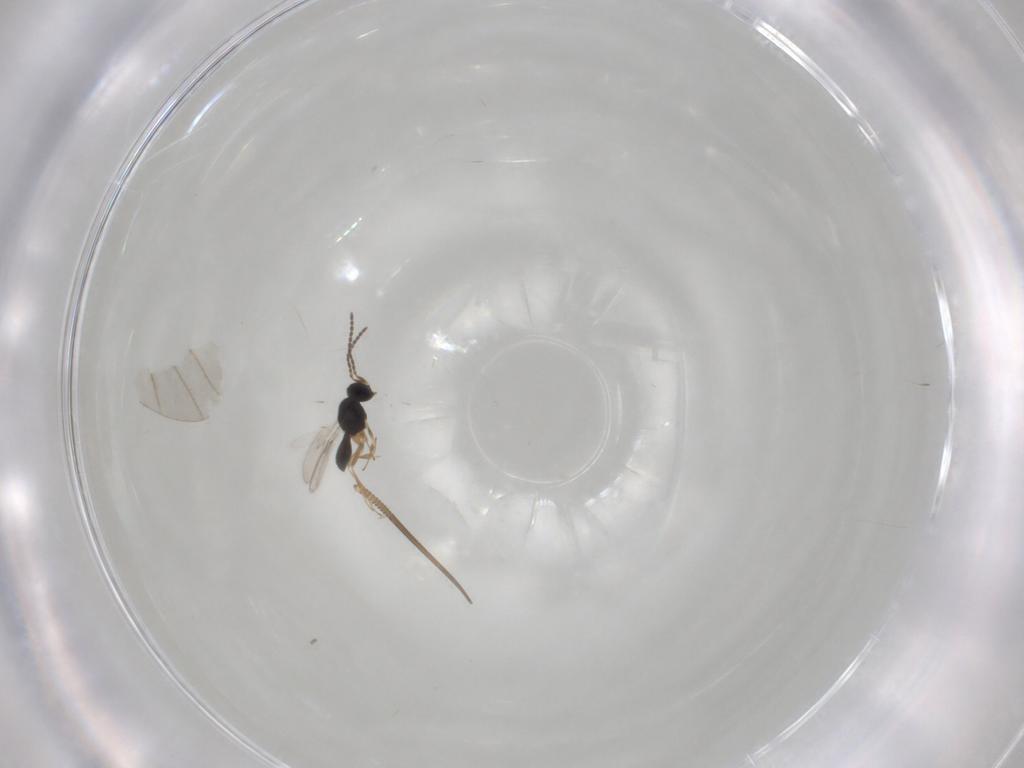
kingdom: Animalia
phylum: Arthropoda
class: Insecta
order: Hymenoptera
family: Scelionidae
